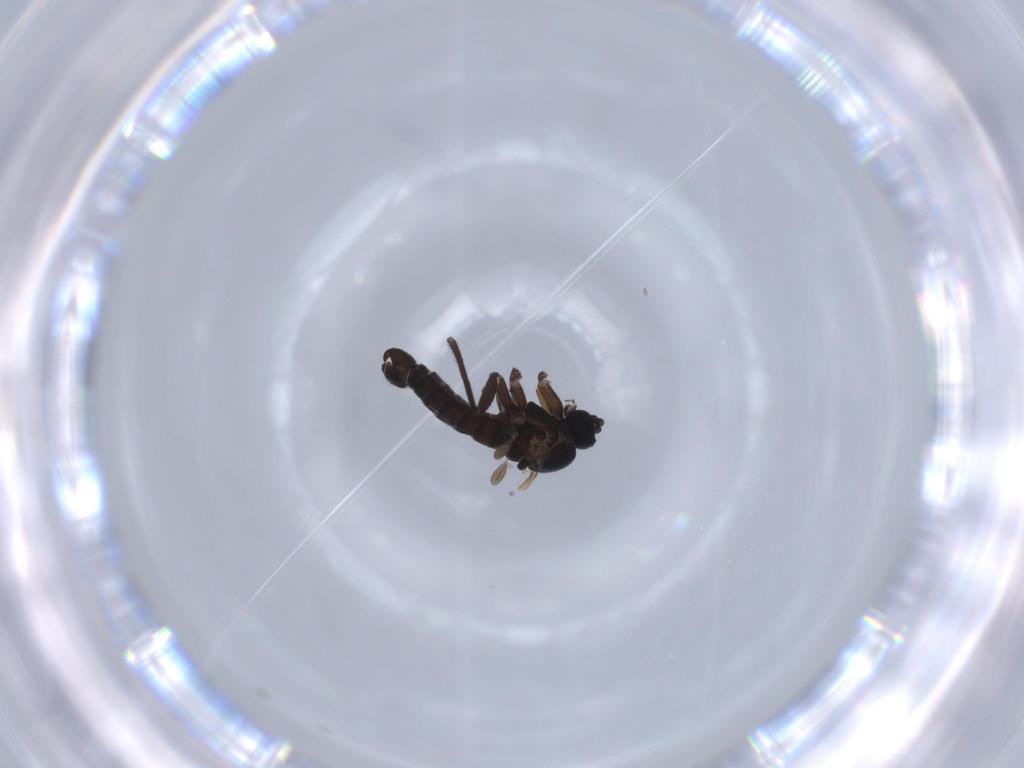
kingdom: Animalia
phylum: Arthropoda
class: Insecta
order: Diptera
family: Sciaridae
